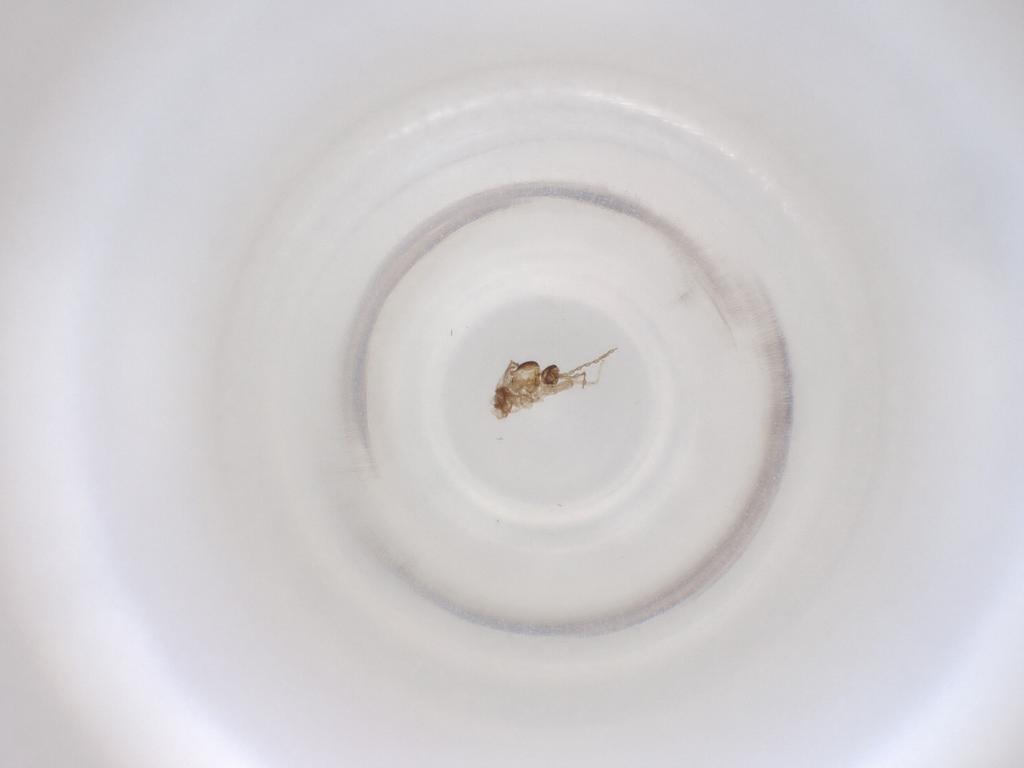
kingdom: Animalia
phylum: Arthropoda
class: Insecta
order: Diptera
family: Cecidomyiidae
